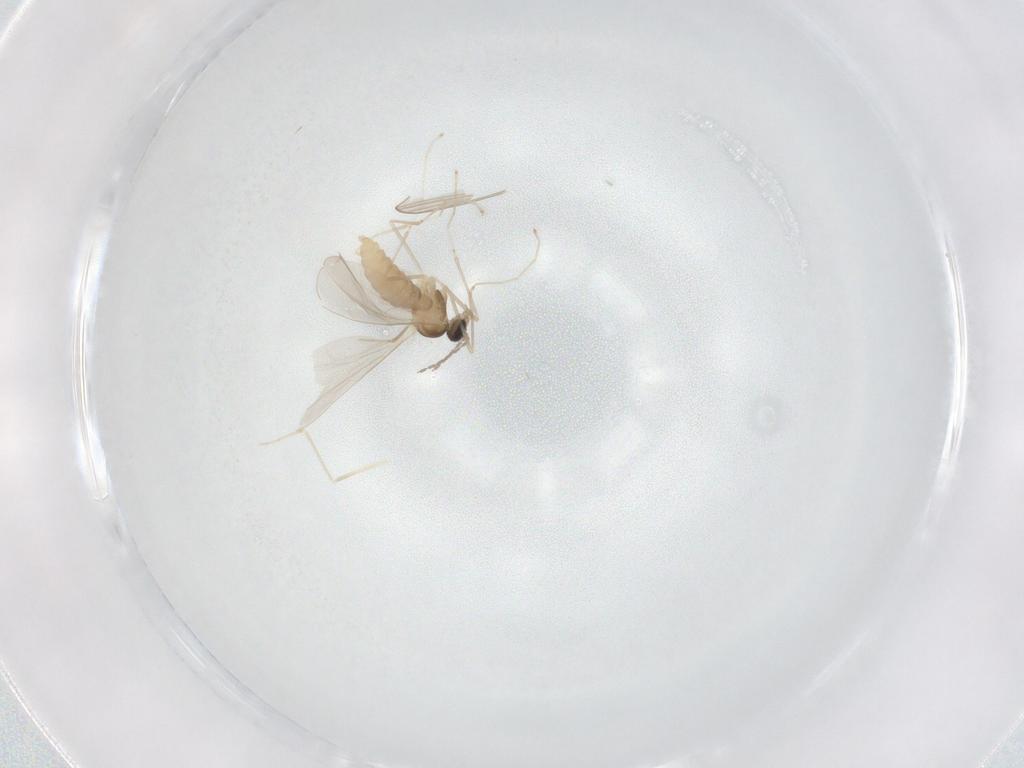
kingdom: Animalia
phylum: Arthropoda
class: Insecta
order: Diptera
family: Cecidomyiidae
